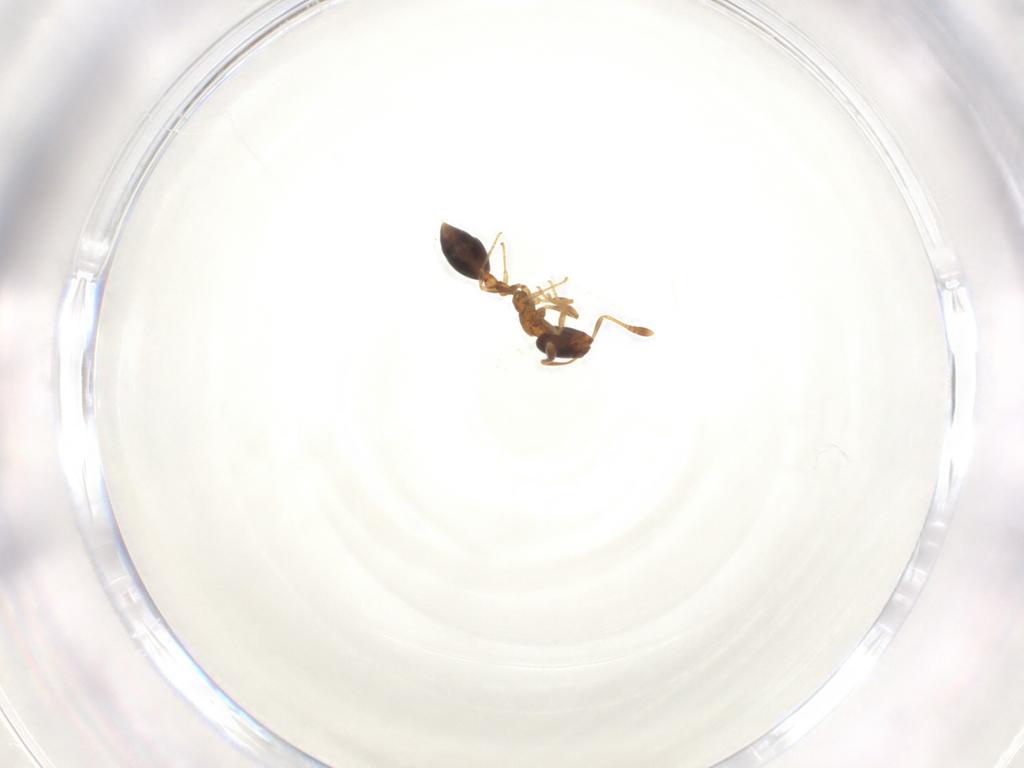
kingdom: Animalia
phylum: Arthropoda
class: Insecta
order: Hymenoptera
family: Formicidae
